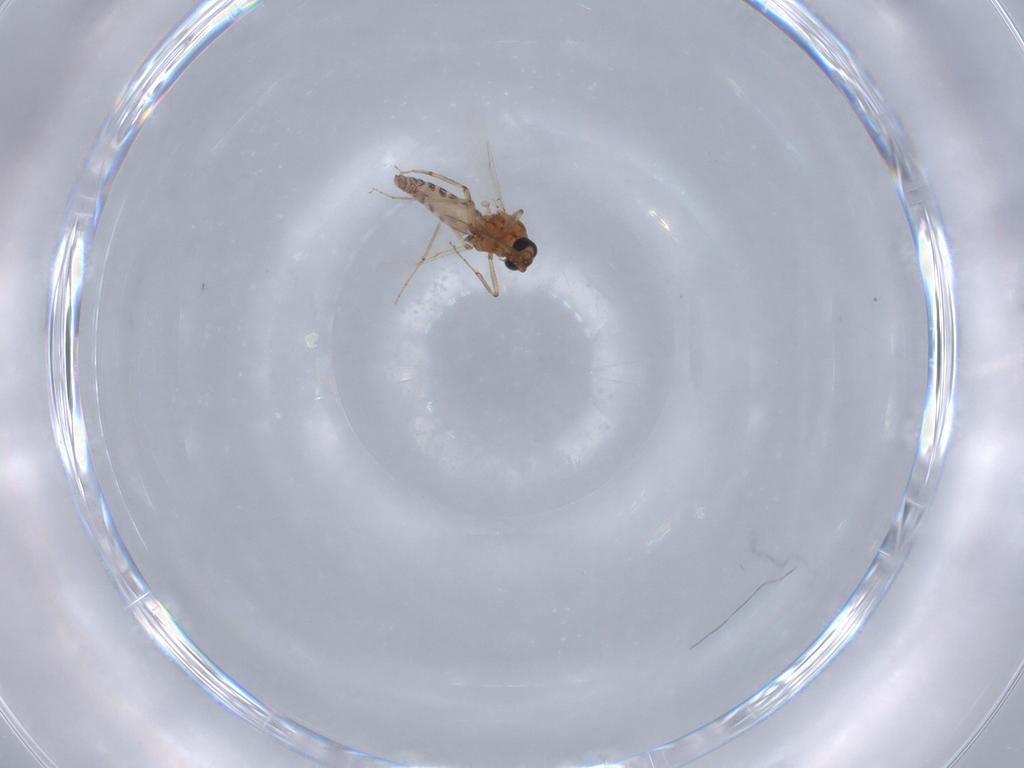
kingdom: Animalia
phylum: Arthropoda
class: Insecta
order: Diptera
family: Ceratopogonidae
